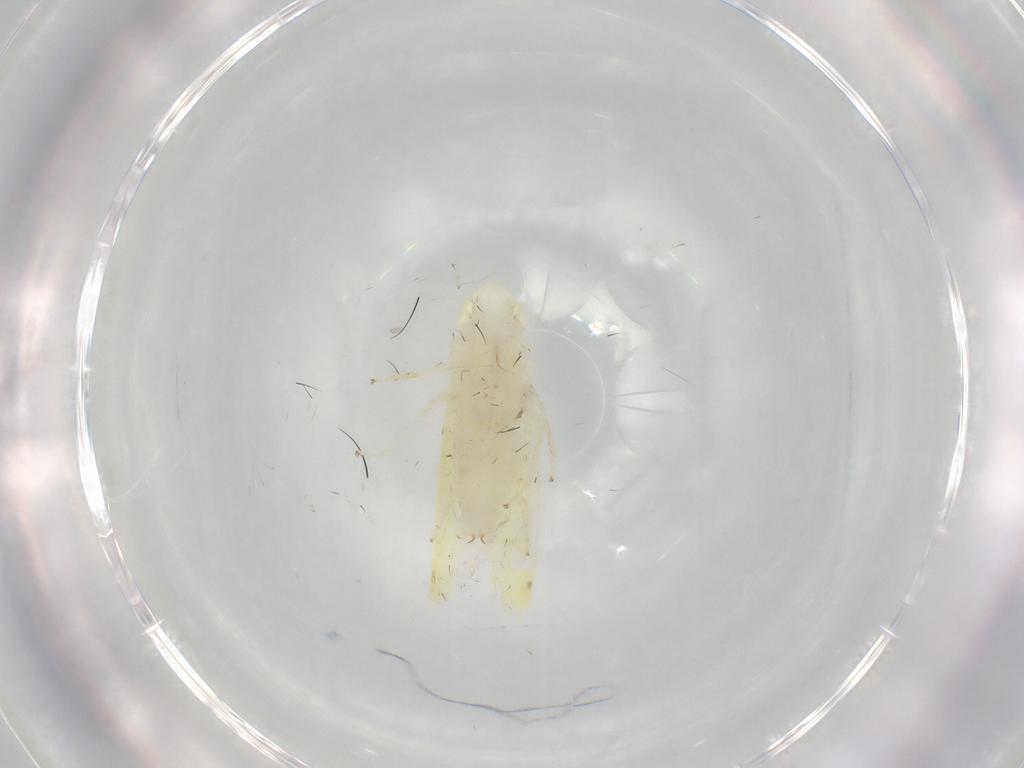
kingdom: Animalia
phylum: Arthropoda
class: Insecta
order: Hemiptera
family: Cicadellidae
